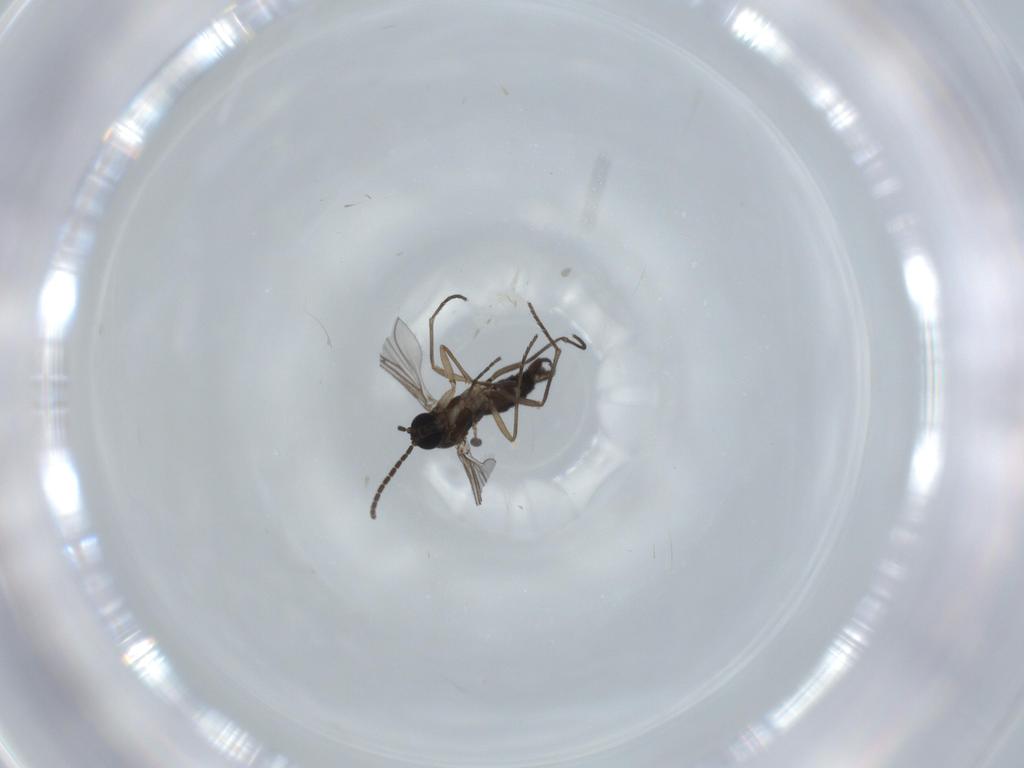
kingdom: Animalia
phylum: Arthropoda
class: Insecta
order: Diptera
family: Sciaridae
